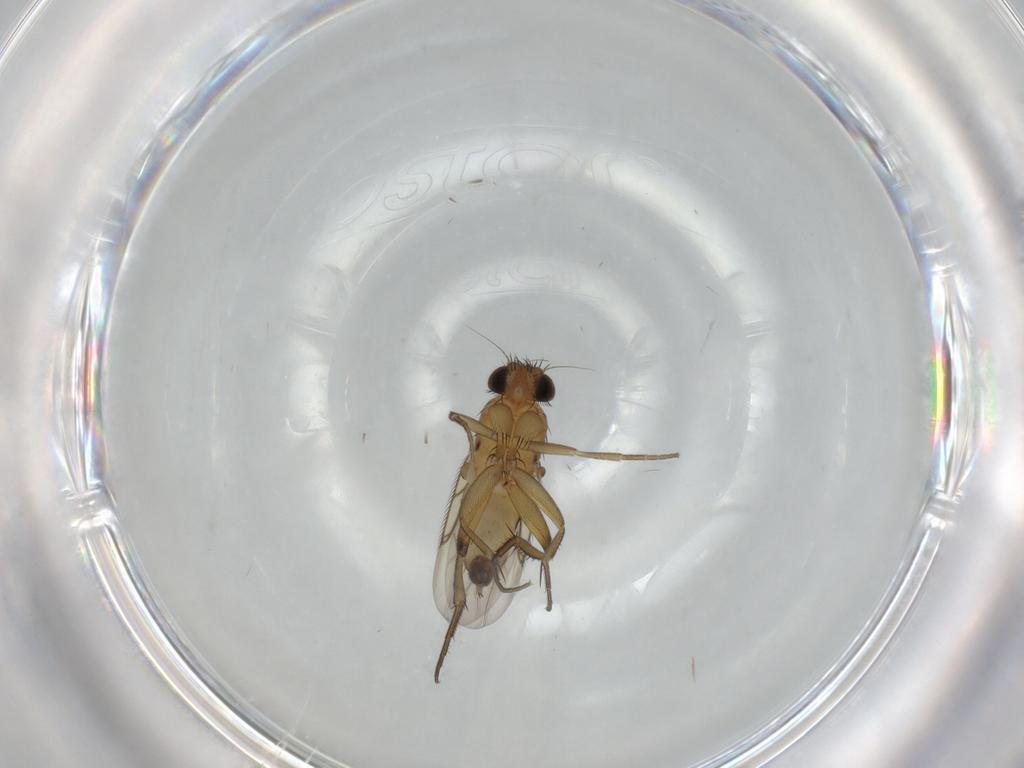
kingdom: Animalia
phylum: Arthropoda
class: Insecta
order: Diptera
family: Phoridae
